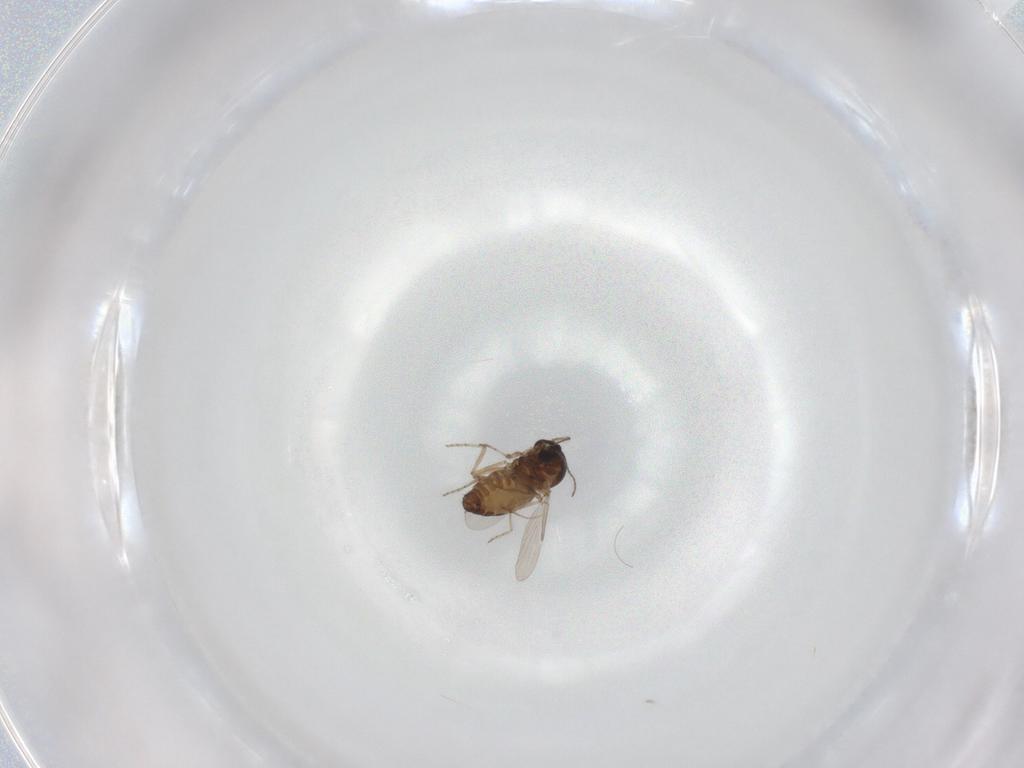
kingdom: Animalia
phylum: Arthropoda
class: Insecta
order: Diptera
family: Ceratopogonidae
